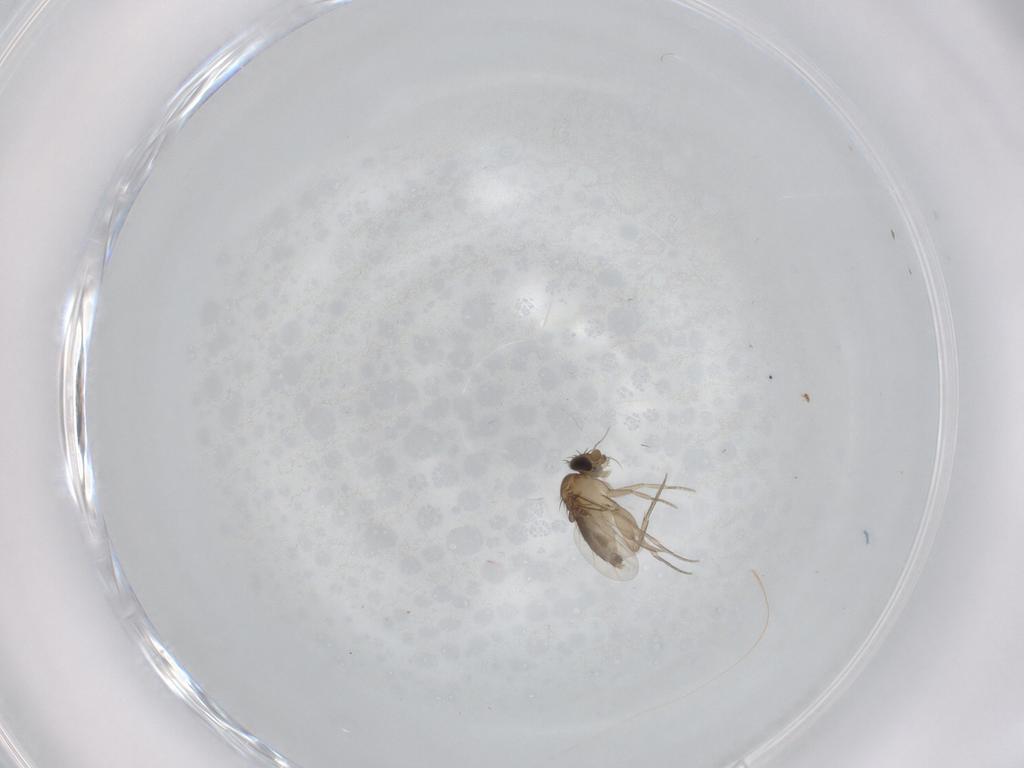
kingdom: Animalia
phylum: Arthropoda
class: Insecta
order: Diptera
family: Phoridae
